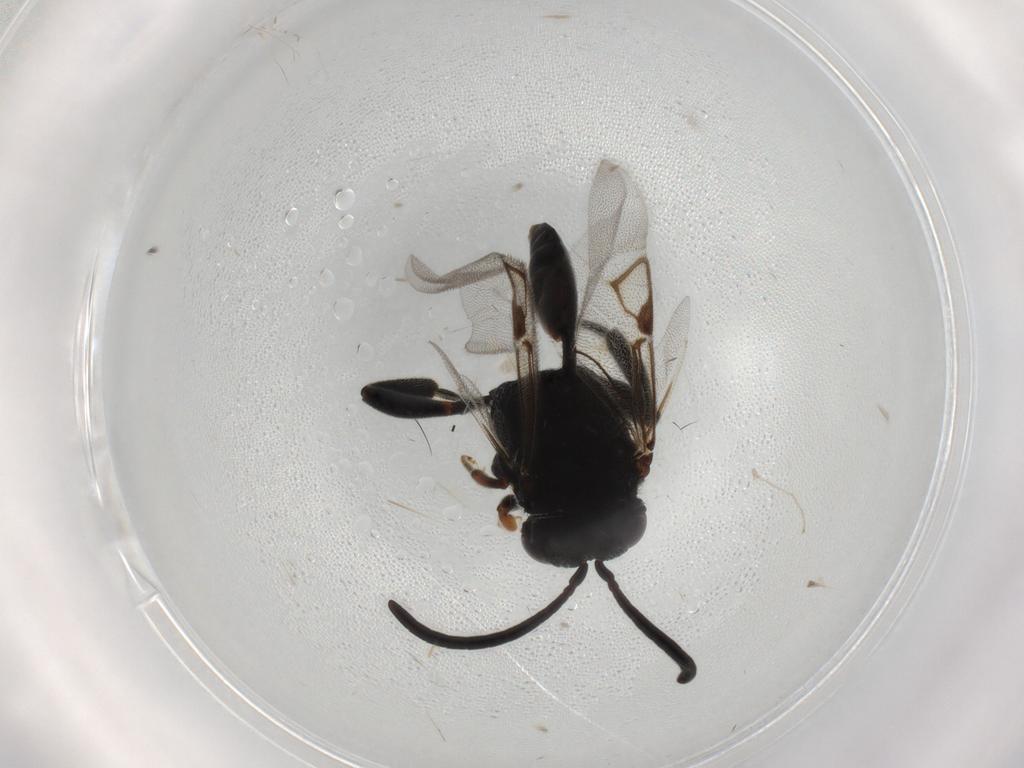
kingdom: Animalia
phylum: Arthropoda
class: Insecta
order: Hymenoptera
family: Evaniidae
